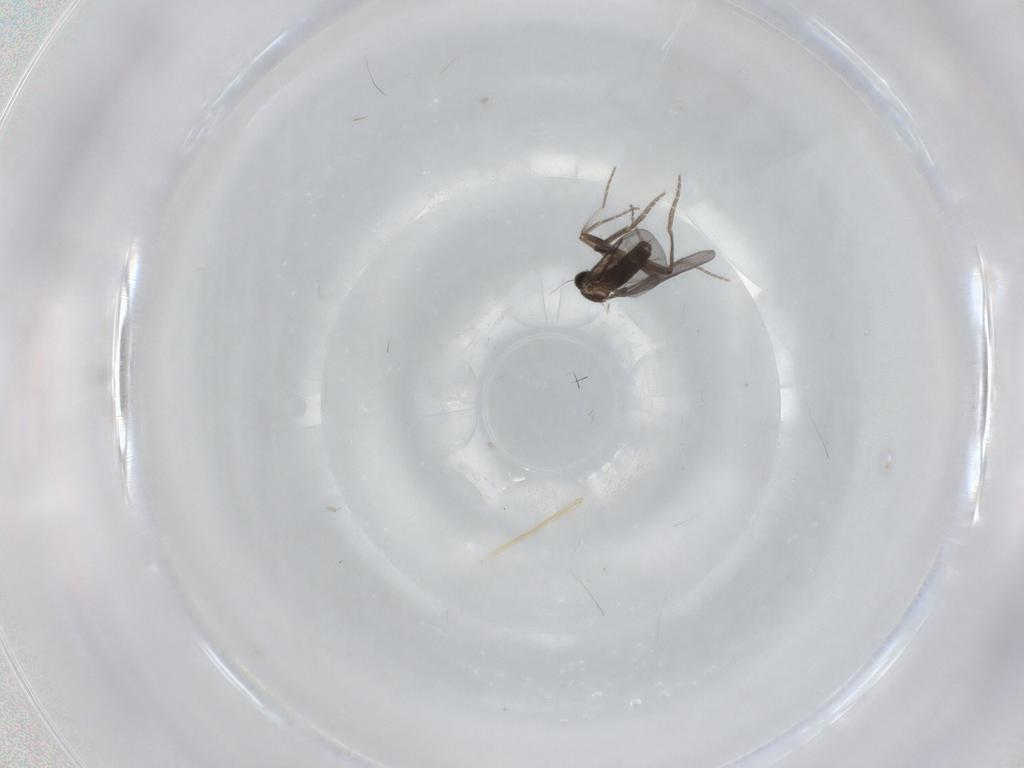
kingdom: Animalia
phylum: Arthropoda
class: Insecta
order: Diptera
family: Chironomidae
